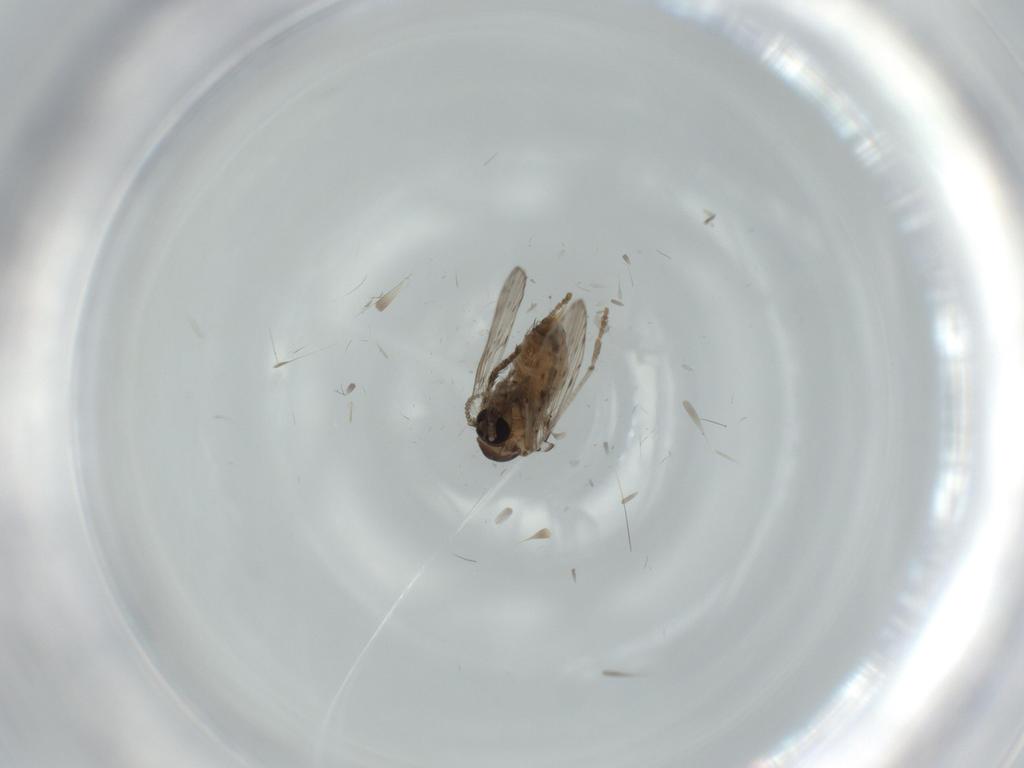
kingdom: Animalia
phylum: Arthropoda
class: Insecta
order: Diptera
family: Psychodidae
